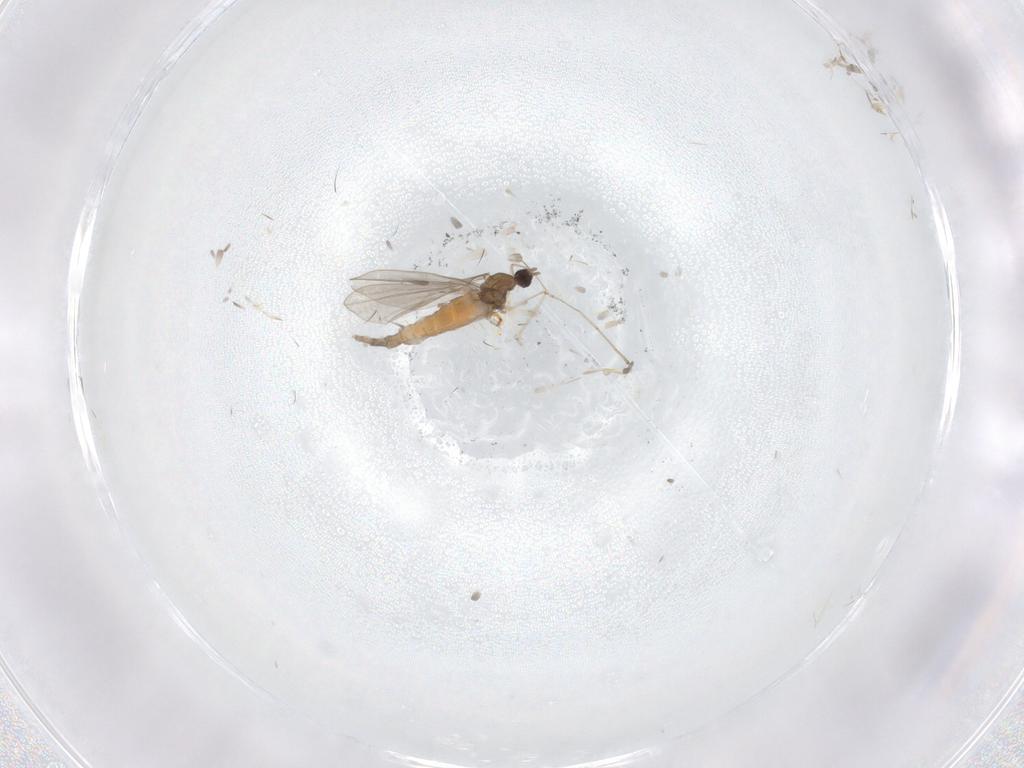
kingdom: Animalia
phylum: Arthropoda
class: Insecta
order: Diptera
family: Cecidomyiidae
